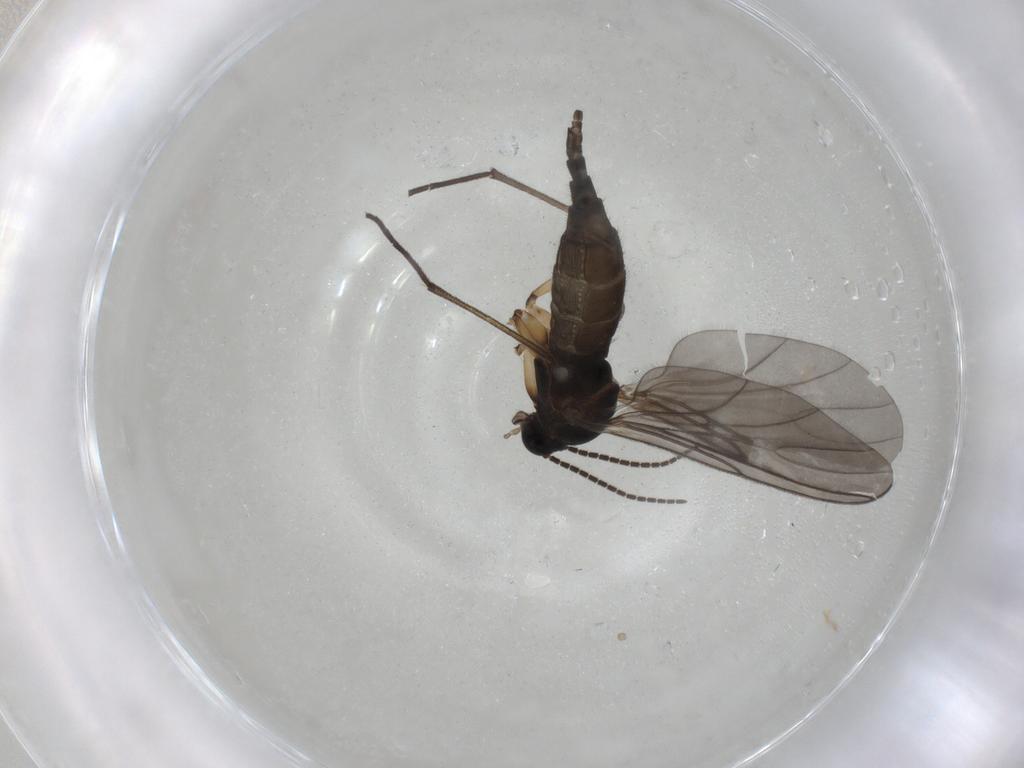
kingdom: Animalia
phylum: Arthropoda
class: Insecta
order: Diptera
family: Sciaridae
